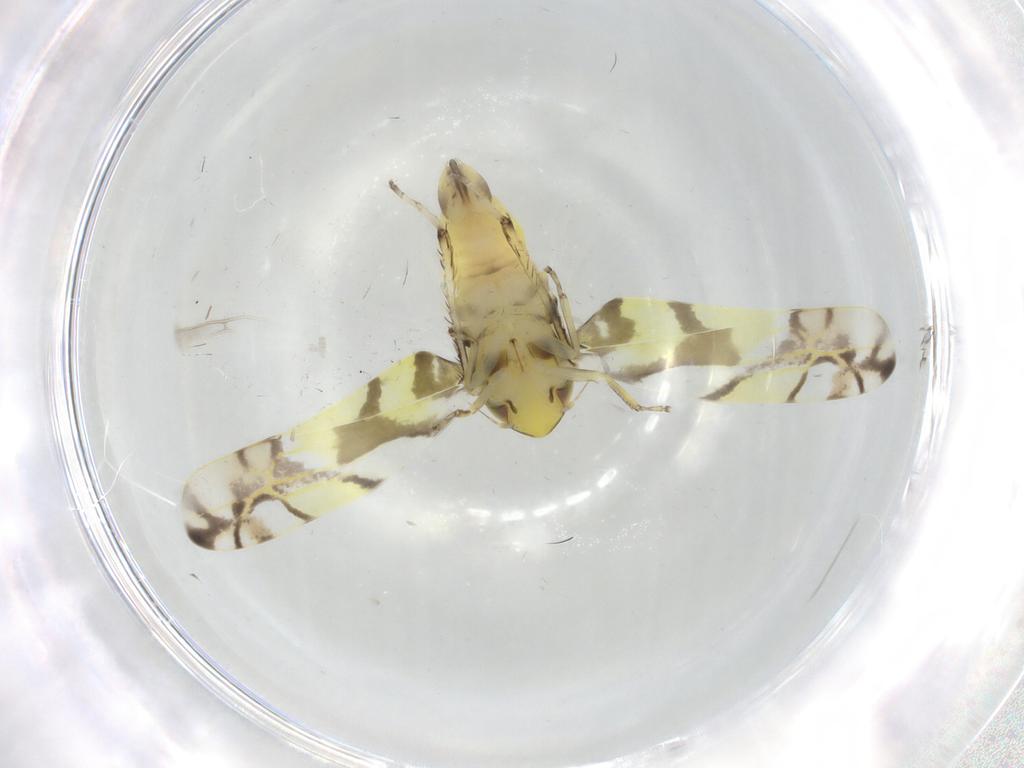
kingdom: Animalia
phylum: Arthropoda
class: Insecta
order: Hemiptera
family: Cicadellidae
